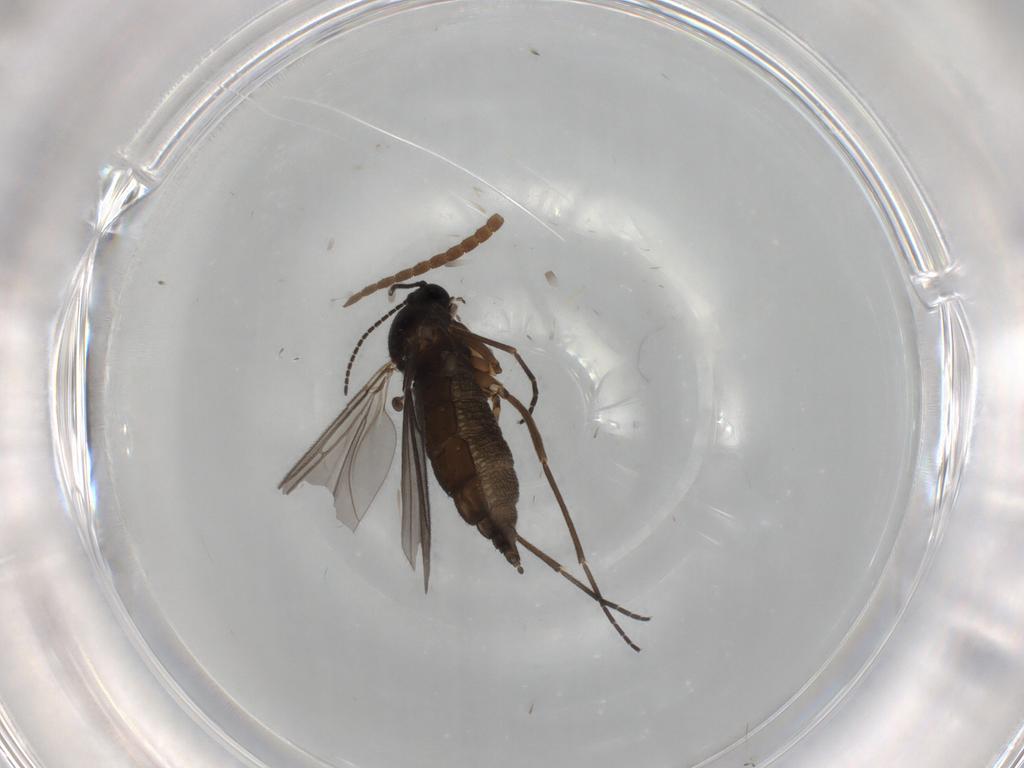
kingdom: Animalia
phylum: Arthropoda
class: Insecta
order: Diptera
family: Sciaridae
